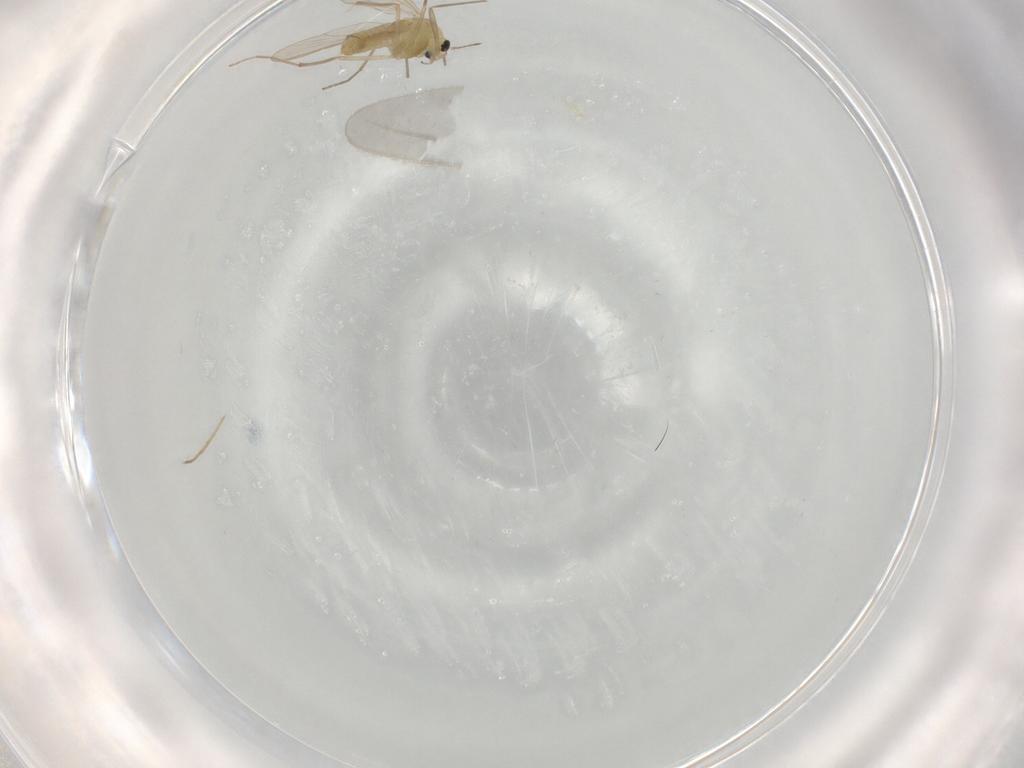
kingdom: Animalia
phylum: Arthropoda
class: Insecta
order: Diptera
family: Chironomidae
